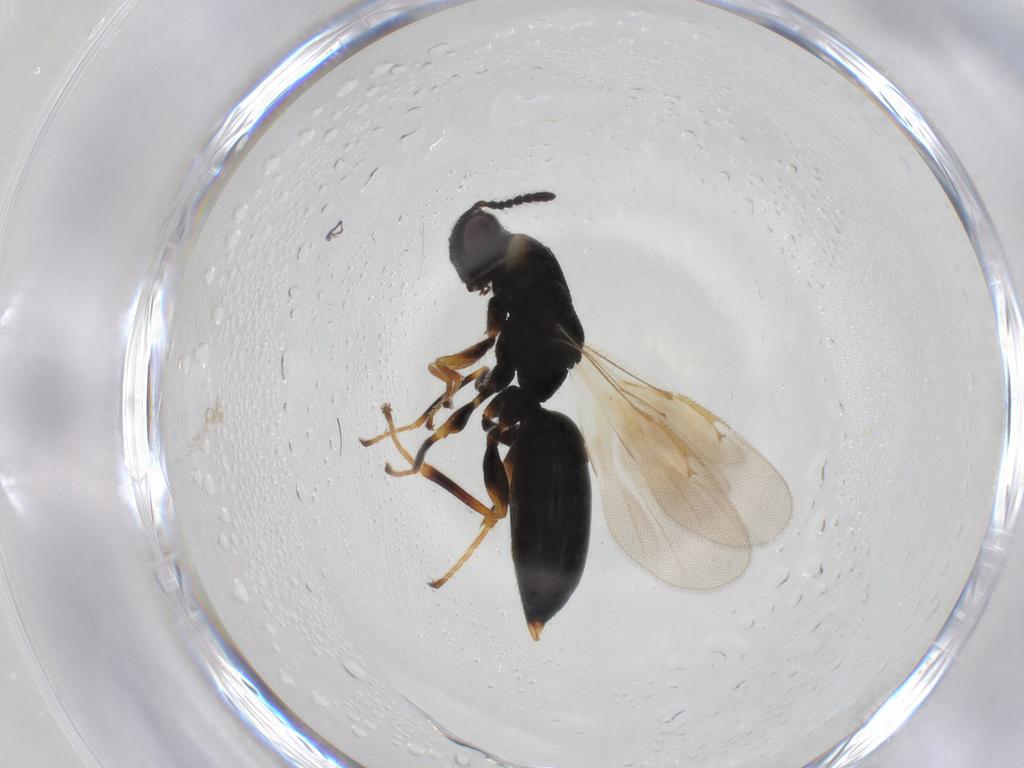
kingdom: Animalia
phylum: Arthropoda
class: Insecta
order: Hymenoptera
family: Eurytomidae
